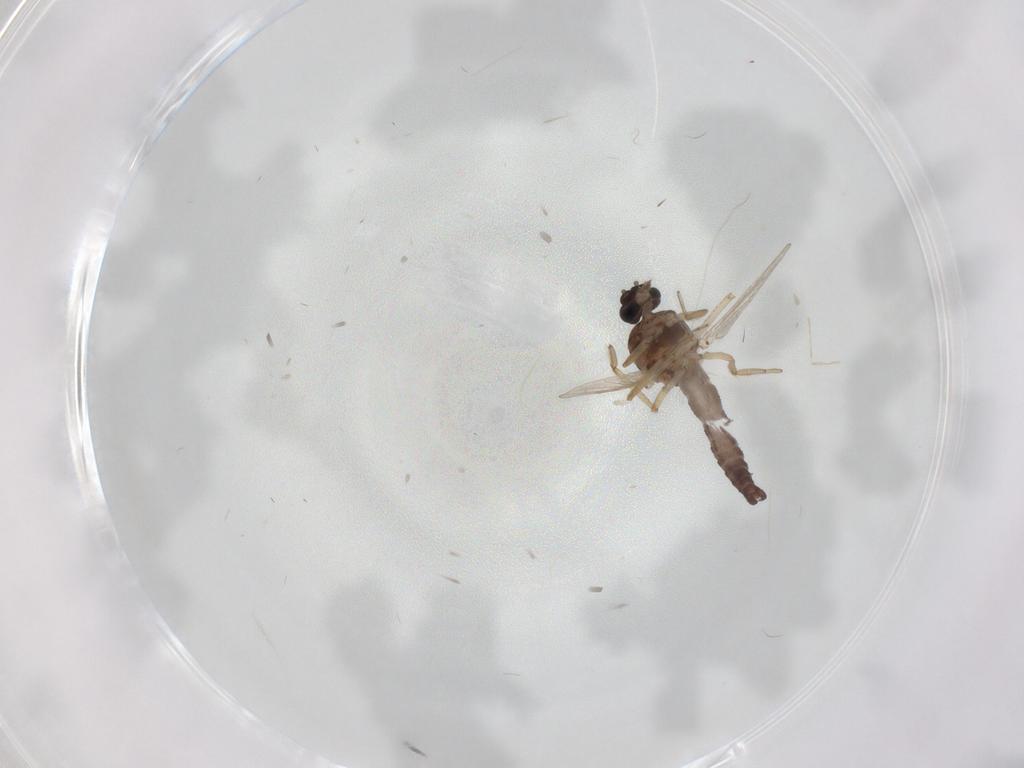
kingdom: Animalia
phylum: Arthropoda
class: Insecta
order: Diptera
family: Ceratopogonidae
